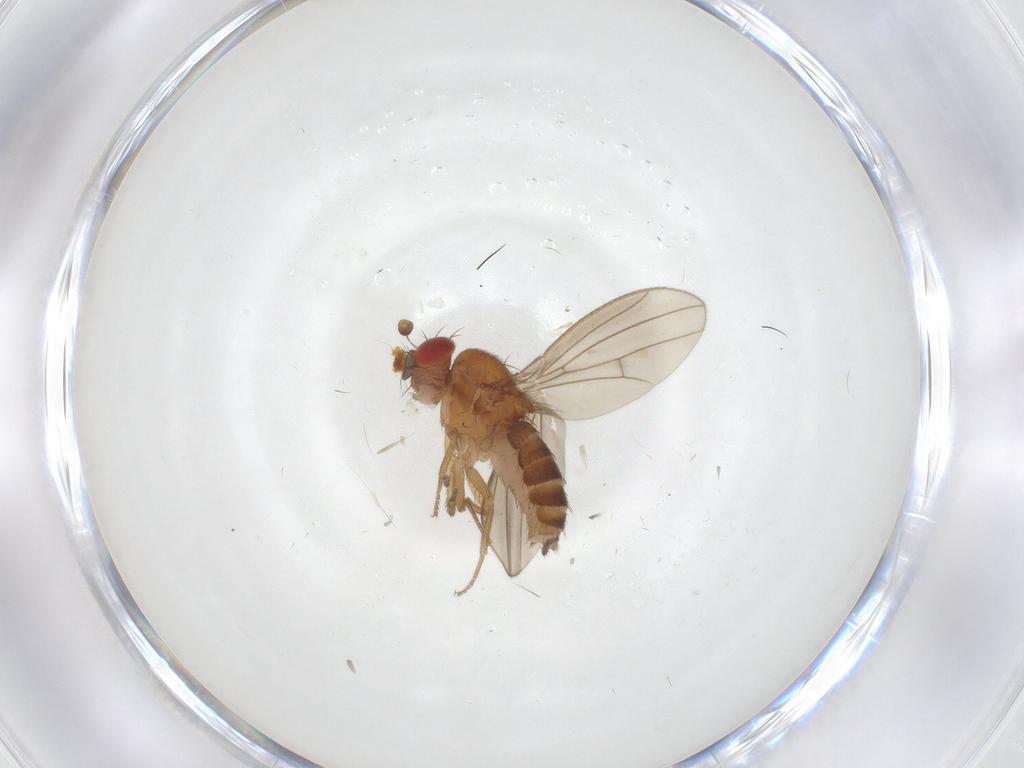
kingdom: Animalia
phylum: Arthropoda
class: Insecta
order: Diptera
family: Drosophilidae
